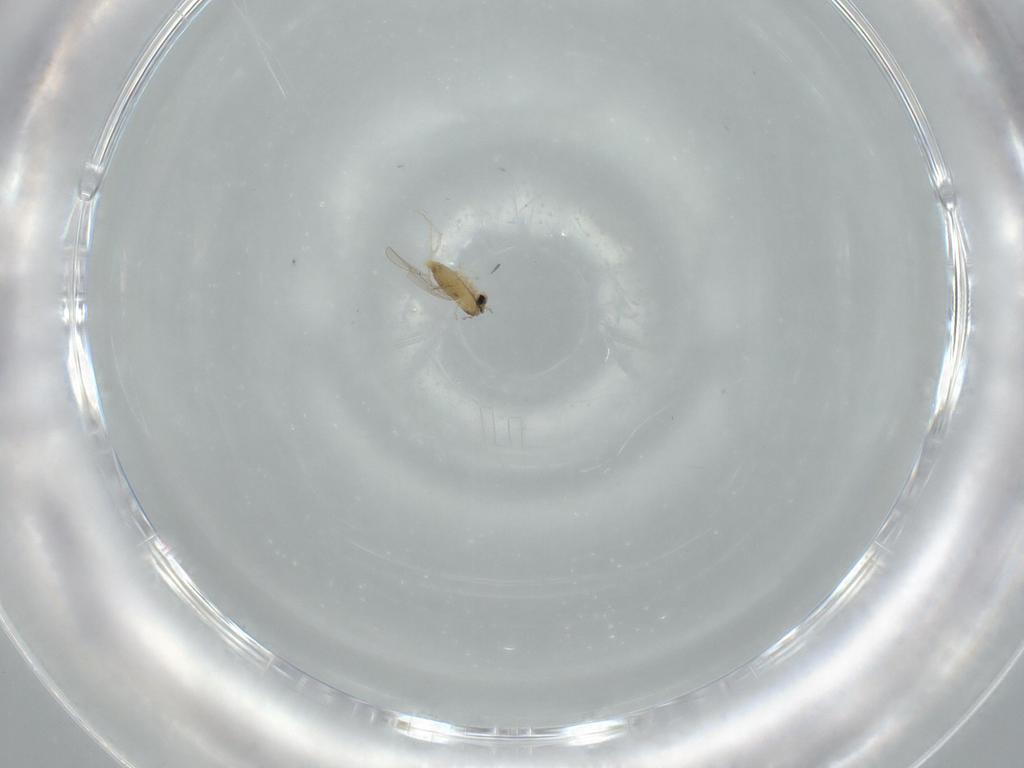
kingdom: Animalia
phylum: Arthropoda
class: Insecta
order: Diptera
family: Cecidomyiidae
